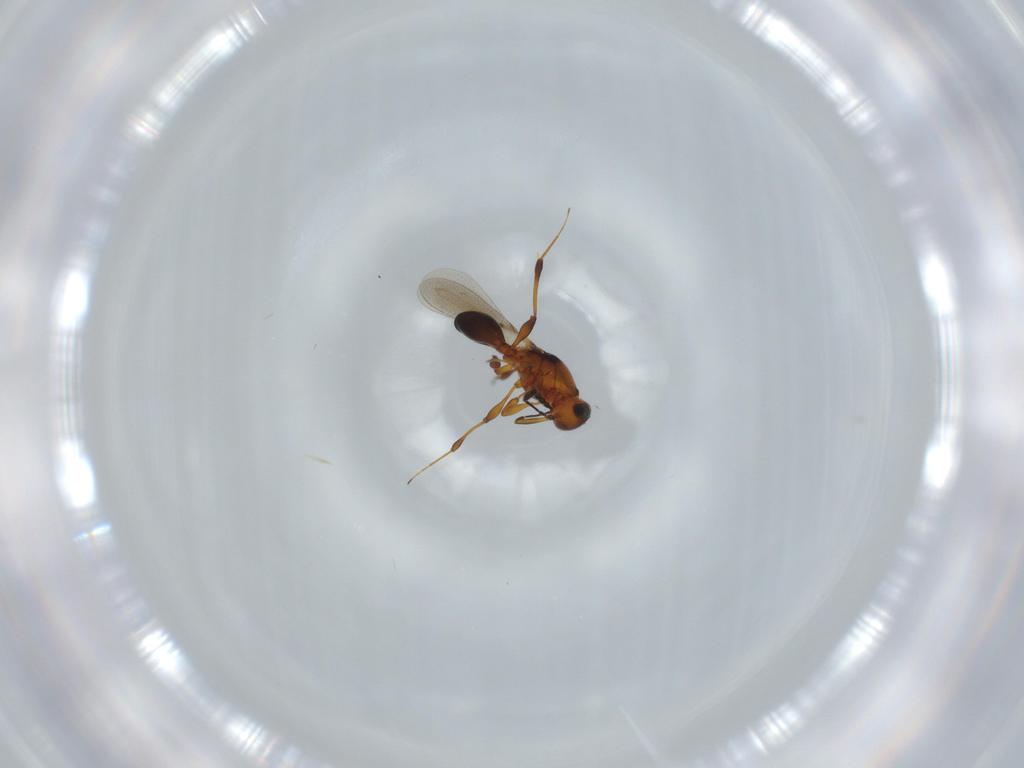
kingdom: Animalia
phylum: Arthropoda
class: Insecta
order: Hymenoptera
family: Platygastridae
